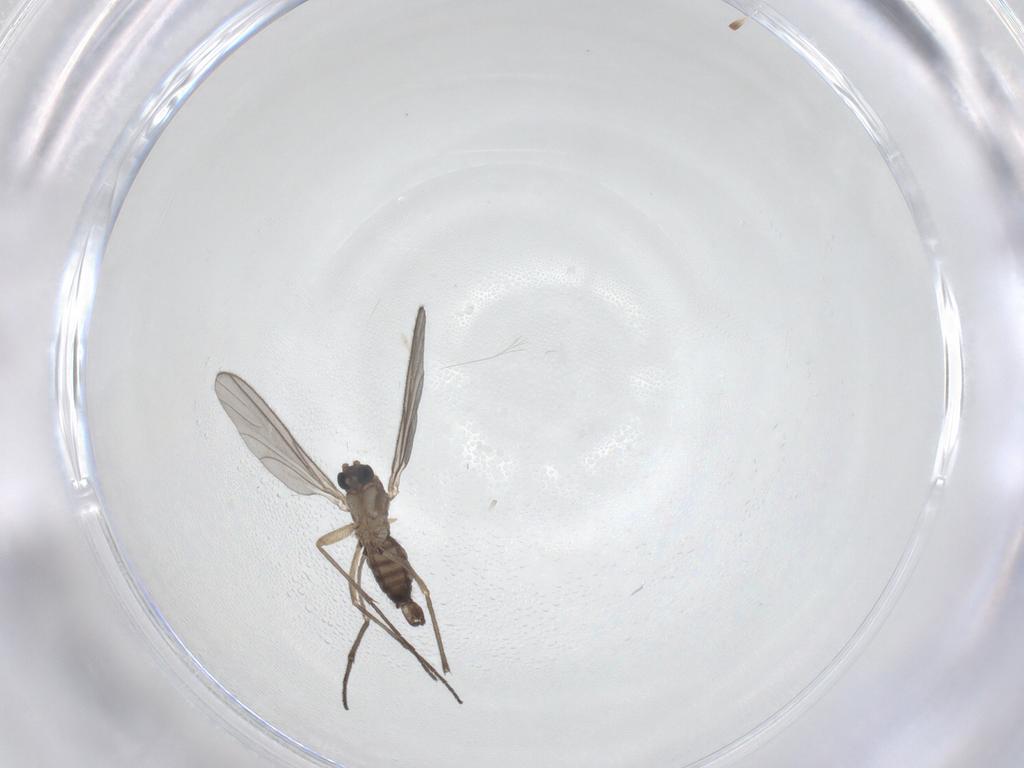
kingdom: Animalia
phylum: Arthropoda
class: Insecta
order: Diptera
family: Sciaridae
